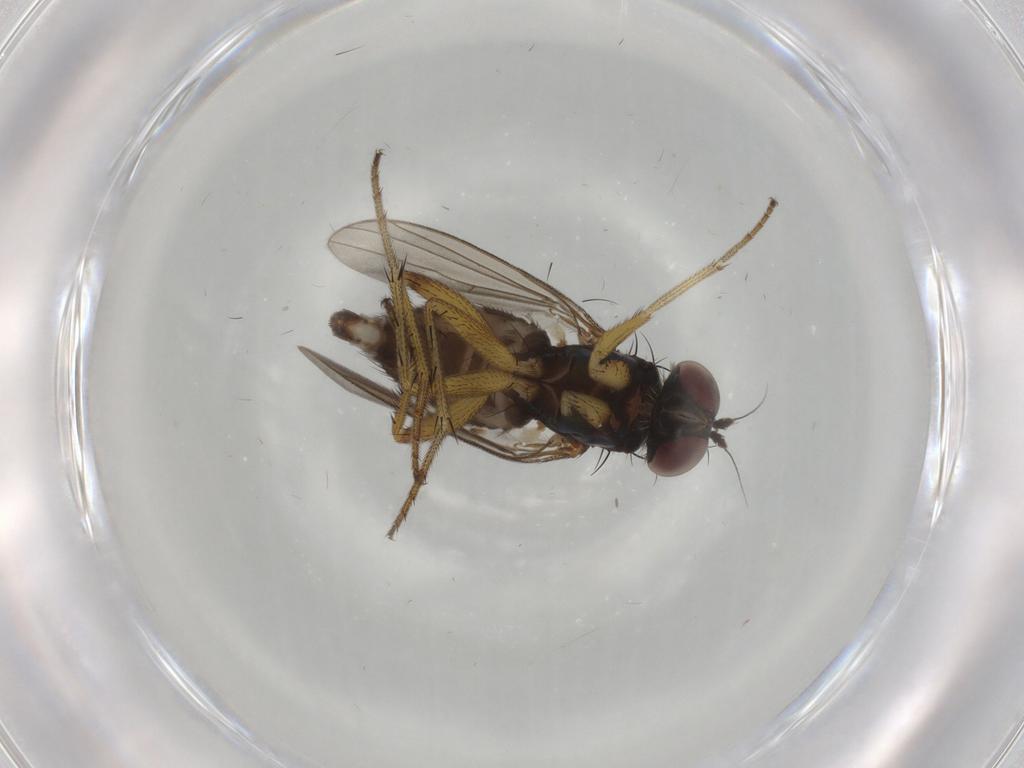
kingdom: Animalia
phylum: Arthropoda
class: Insecta
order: Diptera
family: Dolichopodidae
